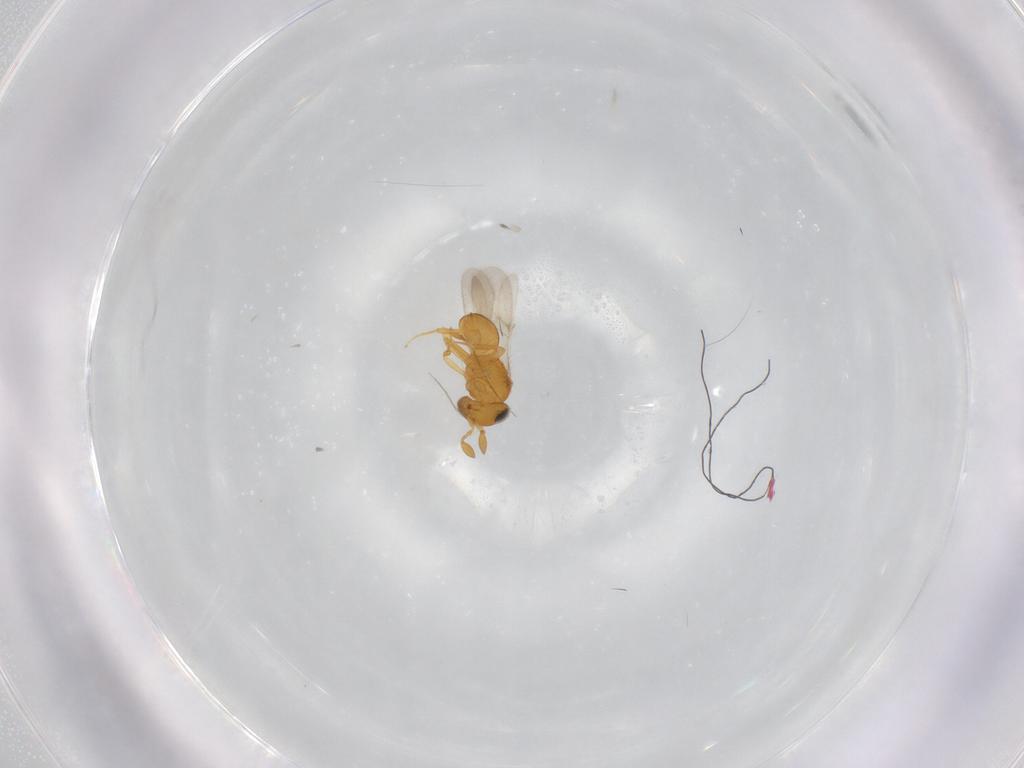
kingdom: Animalia
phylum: Arthropoda
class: Insecta
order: Hymenoptera
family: Scelionidae
